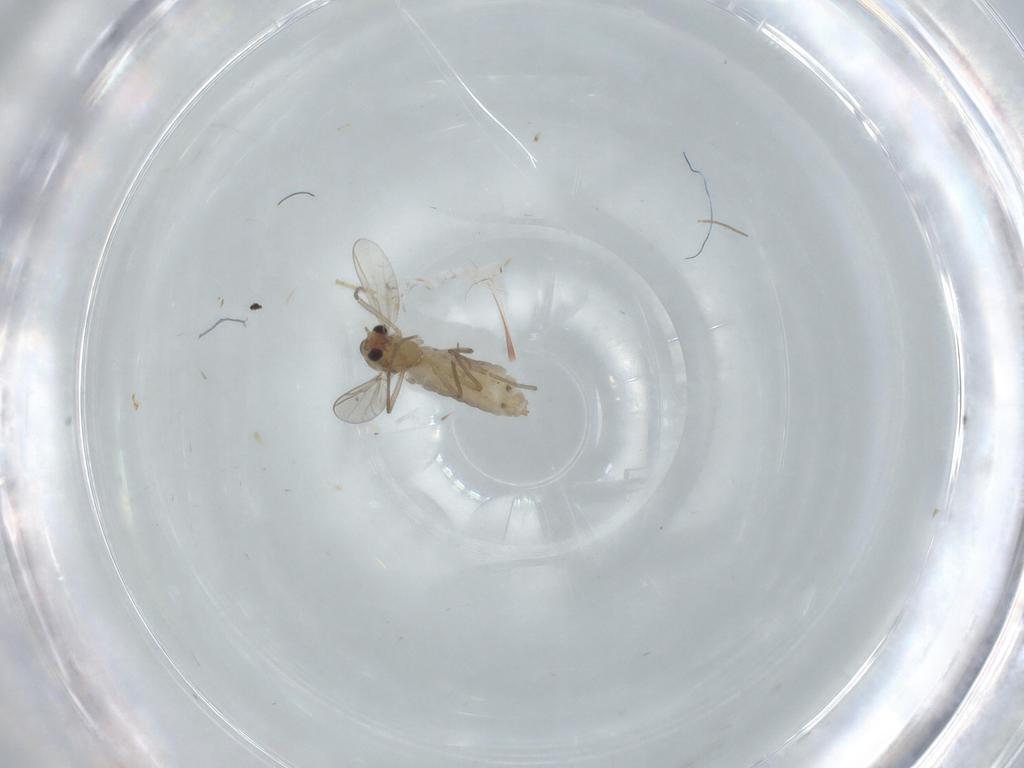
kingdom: Animalia
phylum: Arthropoda
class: Insecta
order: Diptera
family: Chironomidae
